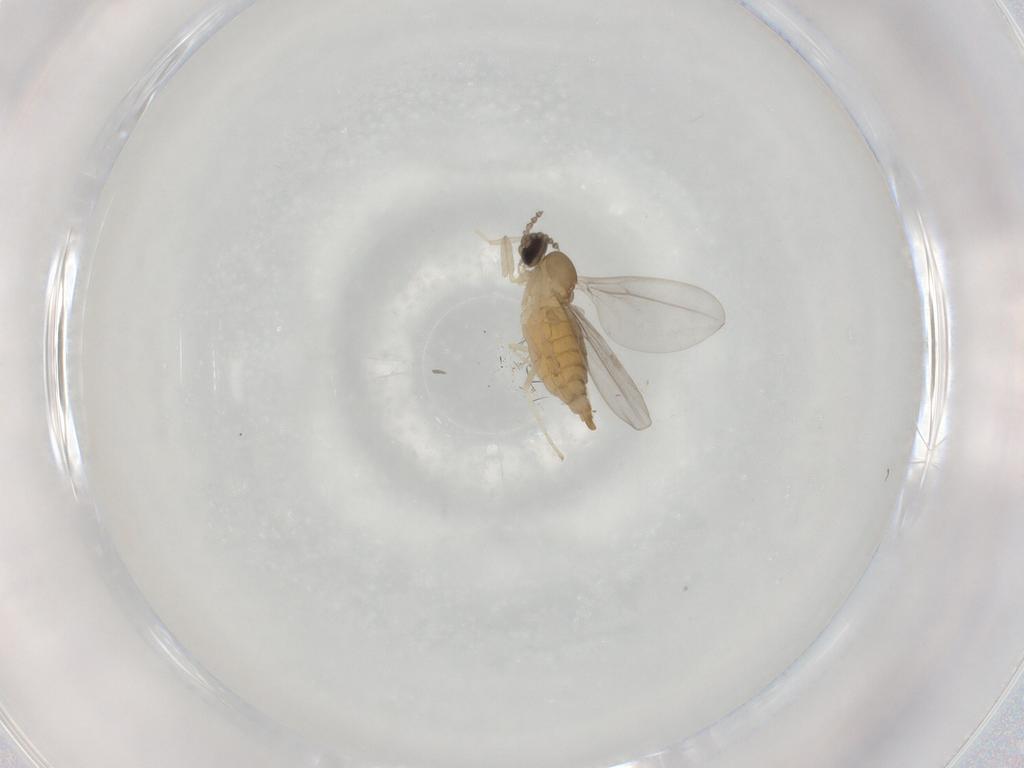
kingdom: Animalia
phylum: Arthropoda
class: Insecta
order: Diptera
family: Cecidomyiidae
